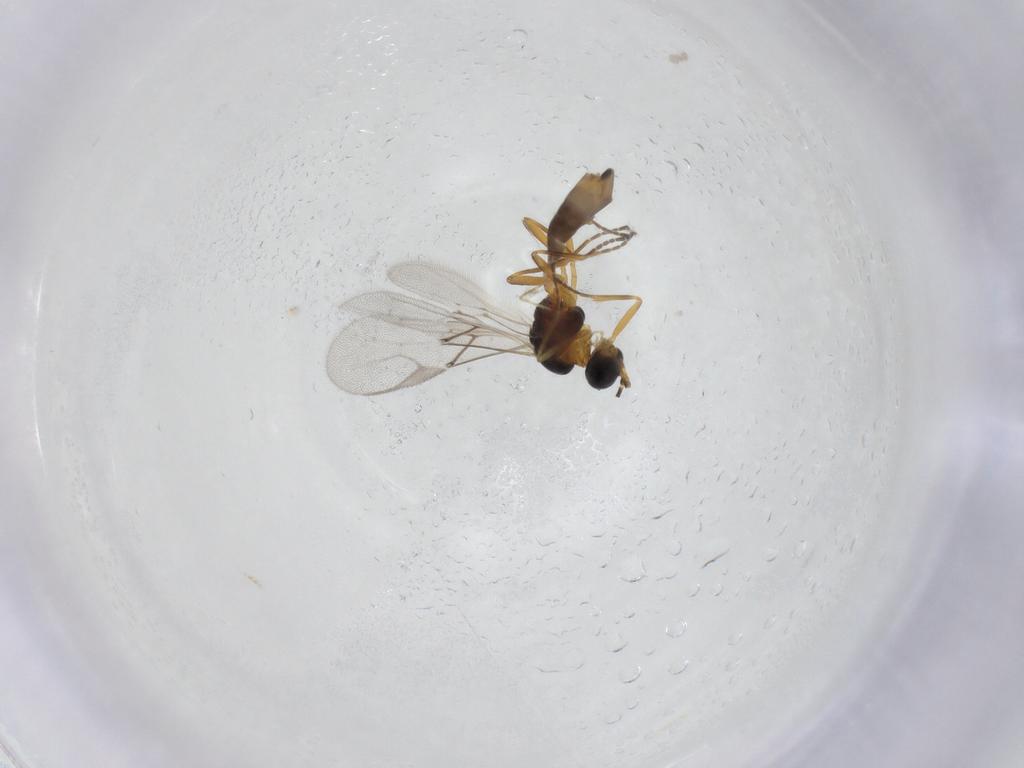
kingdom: Animalia
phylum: Arthropoda
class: Insecta
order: Hymenoptera
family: Braconidae
